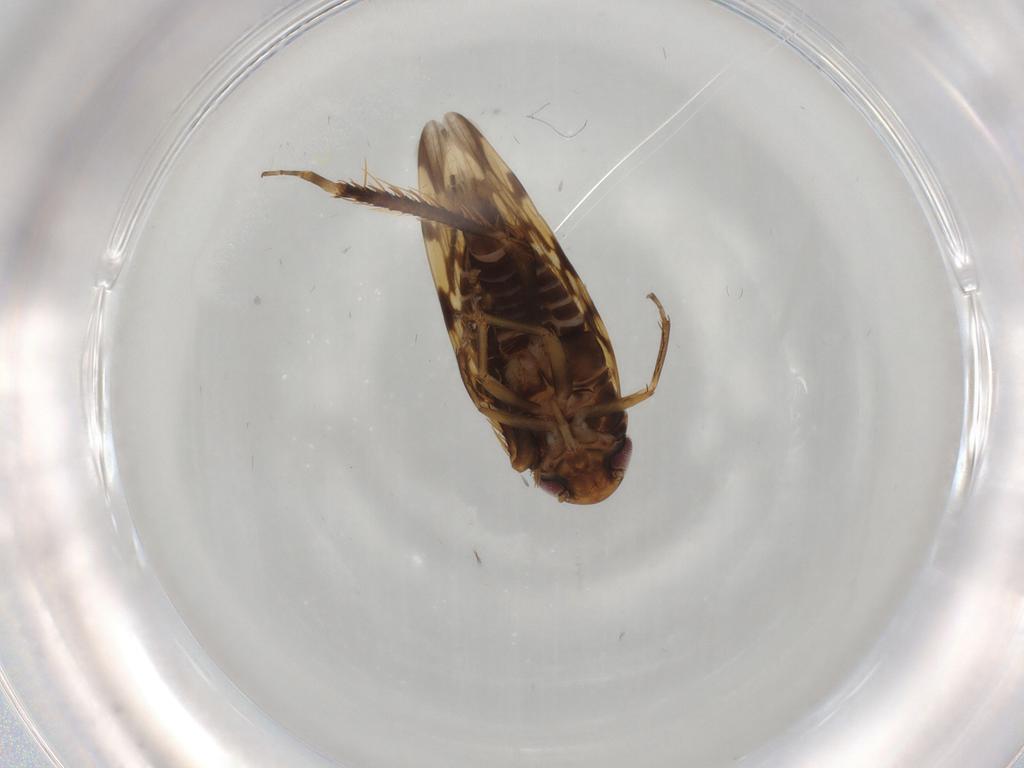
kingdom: Animalia
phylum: Arthropoda
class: Insecta
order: Hemiptera
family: Cicadellidae
